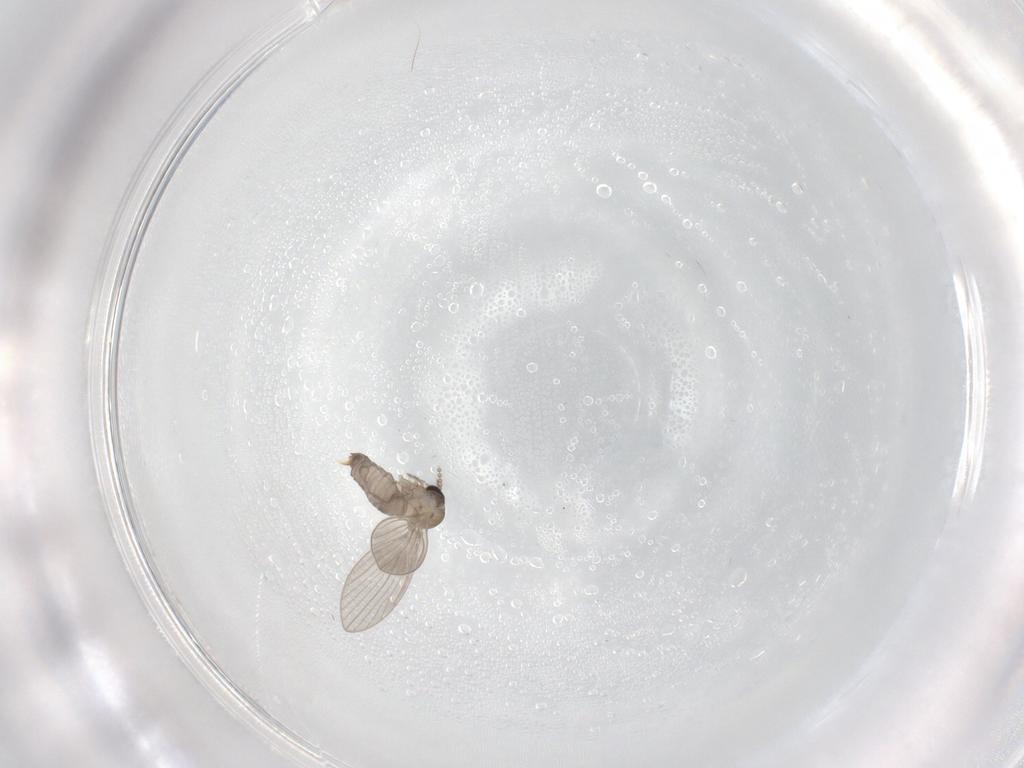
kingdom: Animalia
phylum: Arthropoda
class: Insecta
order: Diptera
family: Psychodidae
